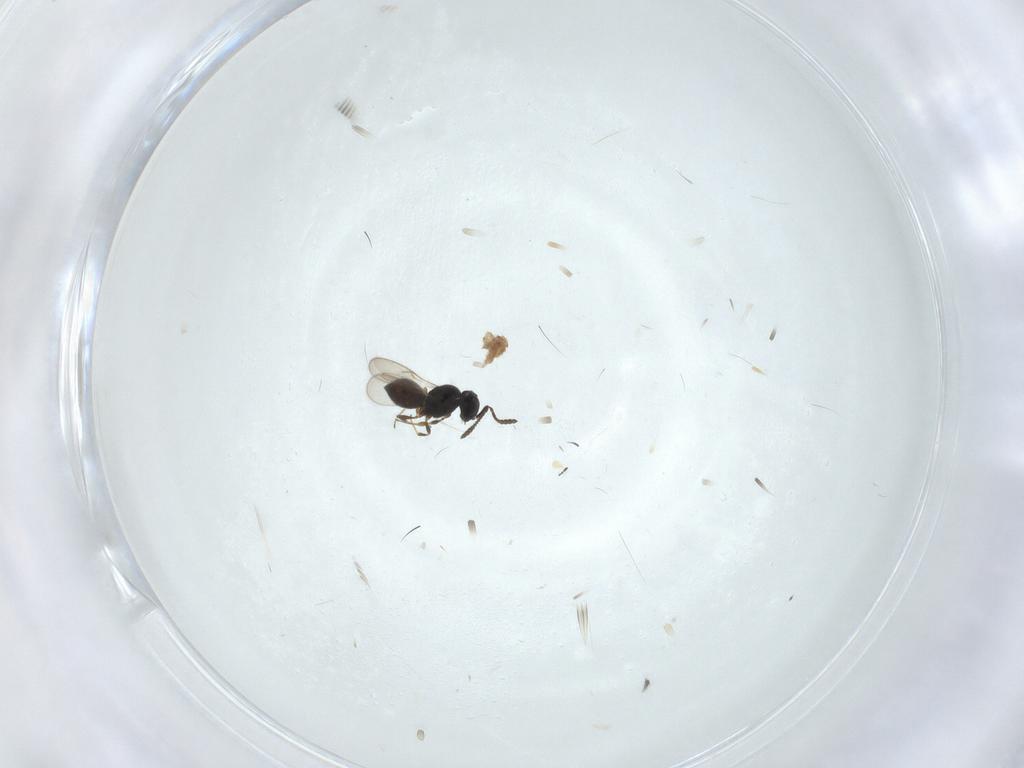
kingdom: Animalia
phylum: Arthropoda
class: Insecta
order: Hymenoptera
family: Scelionidae
